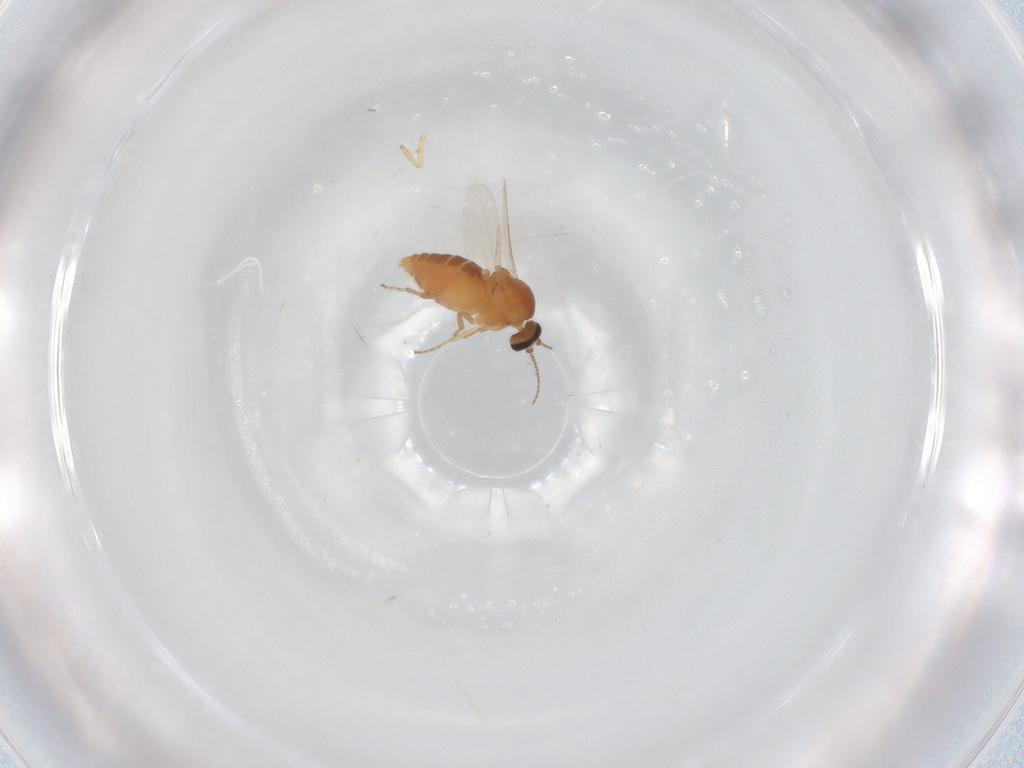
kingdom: Animalia
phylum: Arthropoda
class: Insecta
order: Diptera
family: Ceratopogonidae
